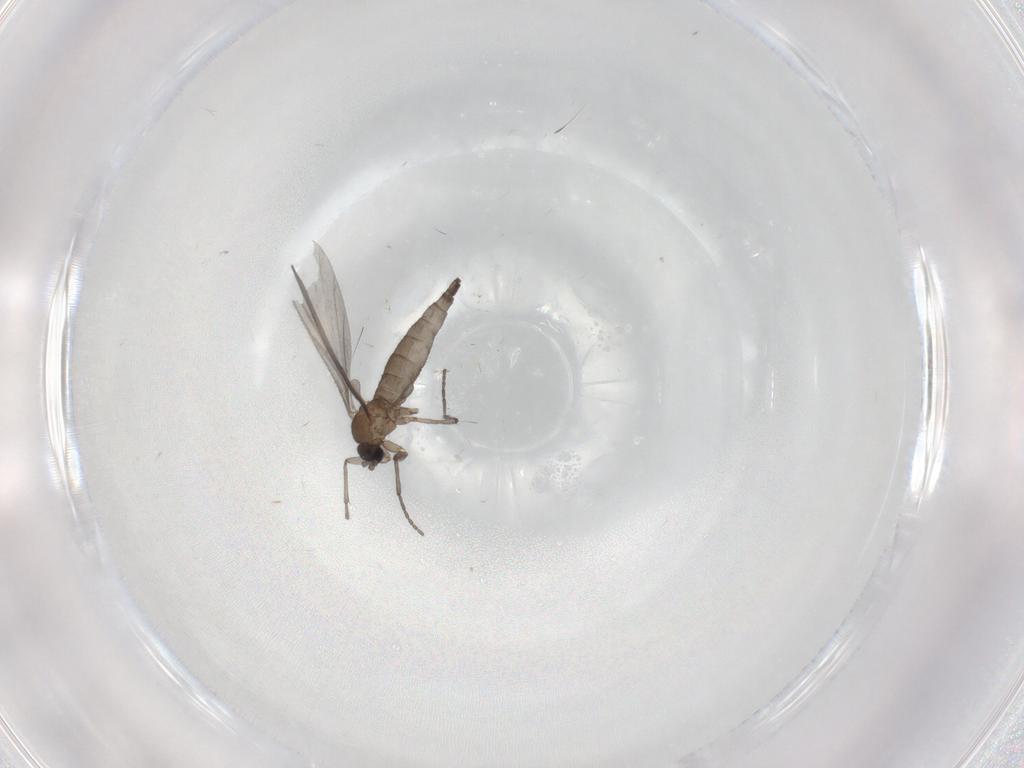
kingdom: Animalia
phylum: Arthropoda
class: Insecta
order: Diptera
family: Sciaridae
